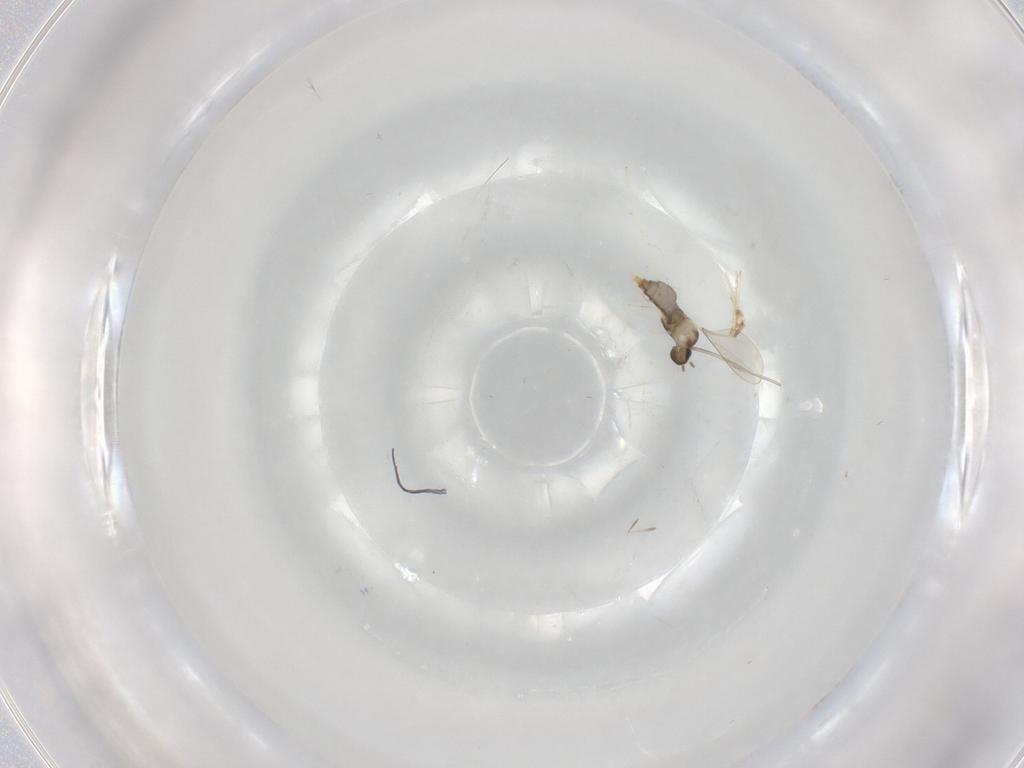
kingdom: Animalia
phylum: Arthropoda
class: Insecta
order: Diptera
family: Cecidomyiidae
